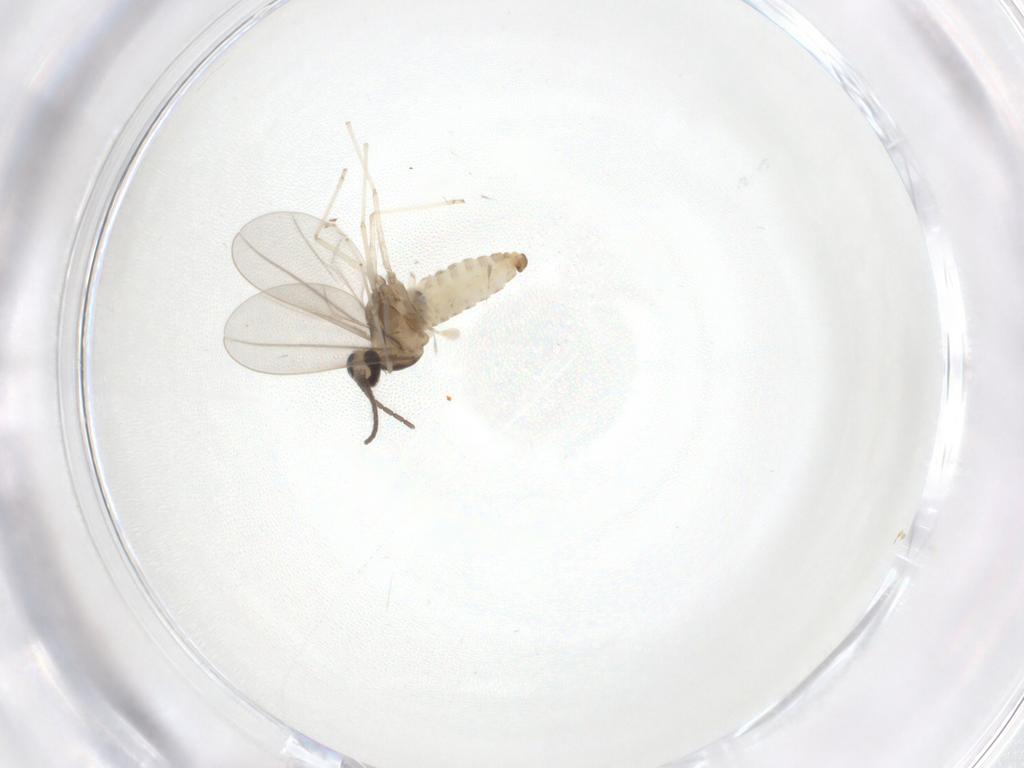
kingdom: Animalia
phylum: Arthropoda
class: Insecta
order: Diptera
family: Cecidomyiidae
